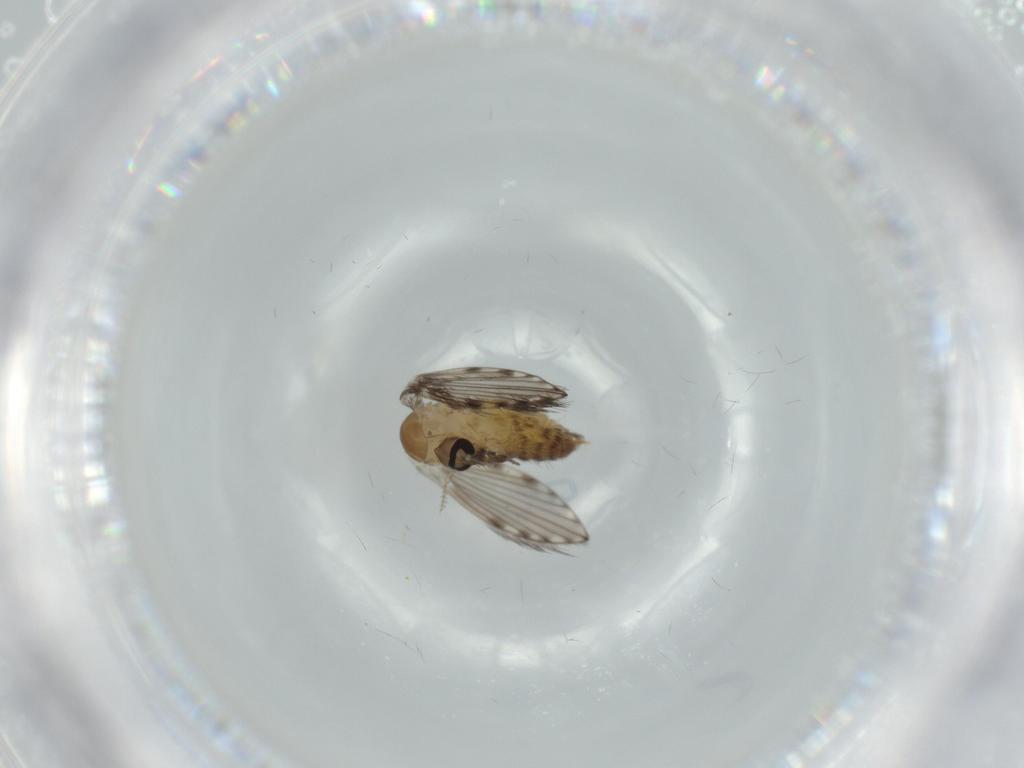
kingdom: Animalia
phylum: Arthropoda
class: Insecta
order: Diptera
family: Psychodidae
